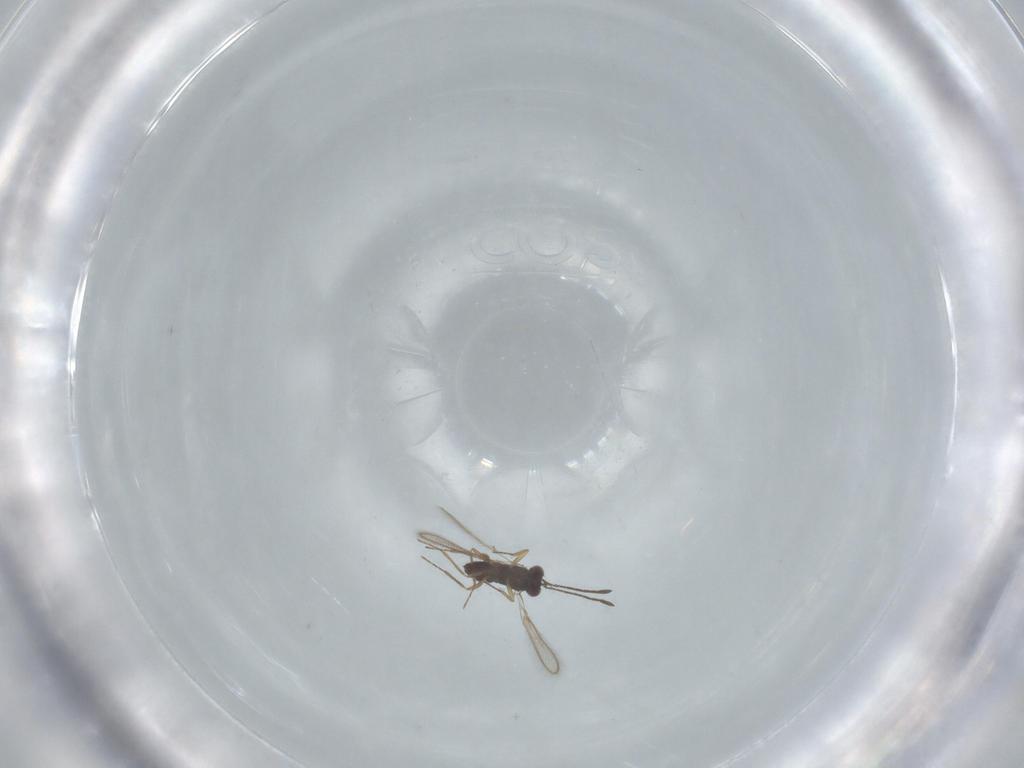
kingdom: Animalia
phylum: Arthropoda
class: Insecta
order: Hymenoptera
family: Mymaridae
